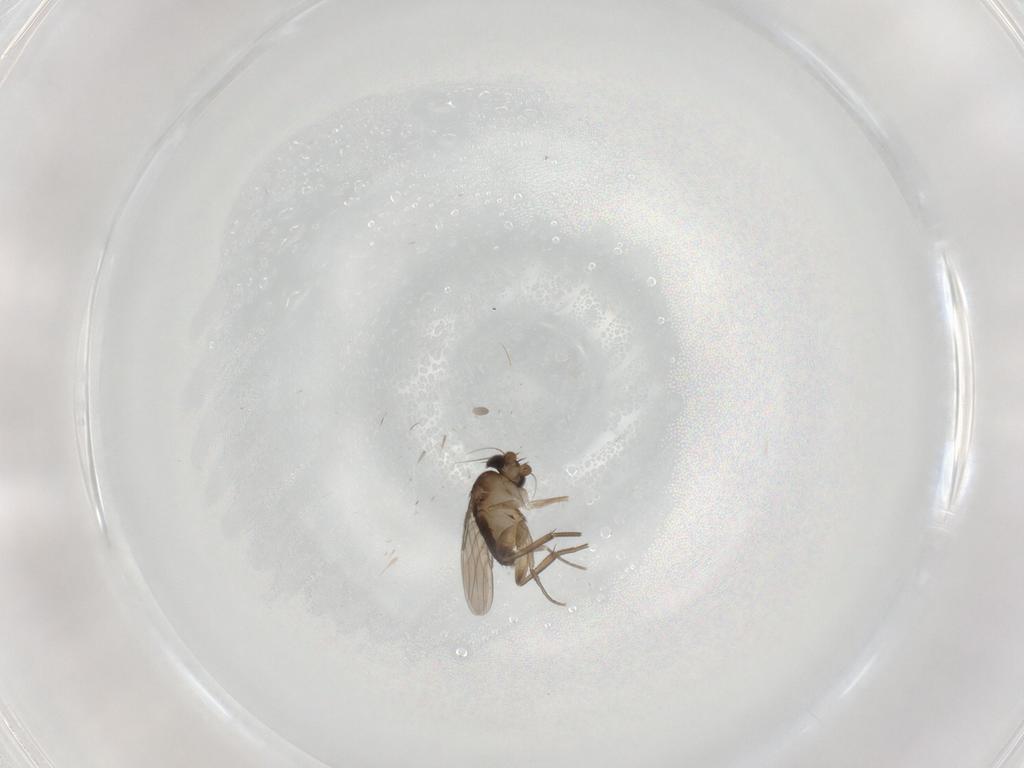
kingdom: Animalia
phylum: Arthropoda
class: Insecta
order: Diptera
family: Phoridae
